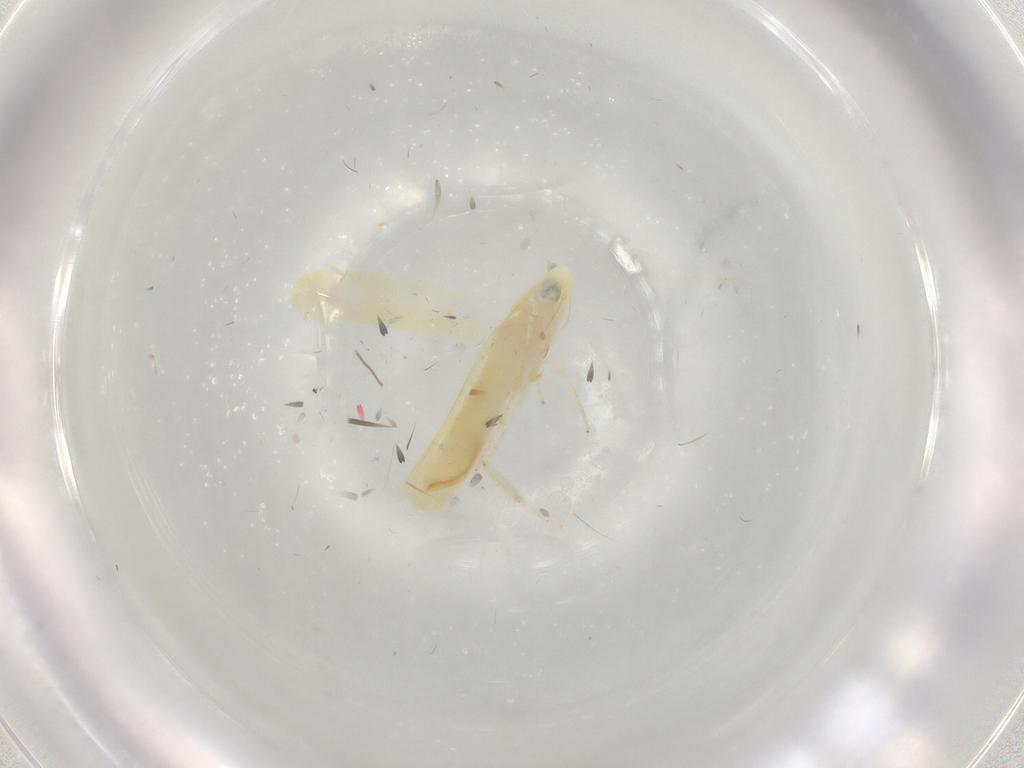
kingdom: Animalia
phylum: Arthropoda
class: Insecta
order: Hemiptera
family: Cicadellidae
